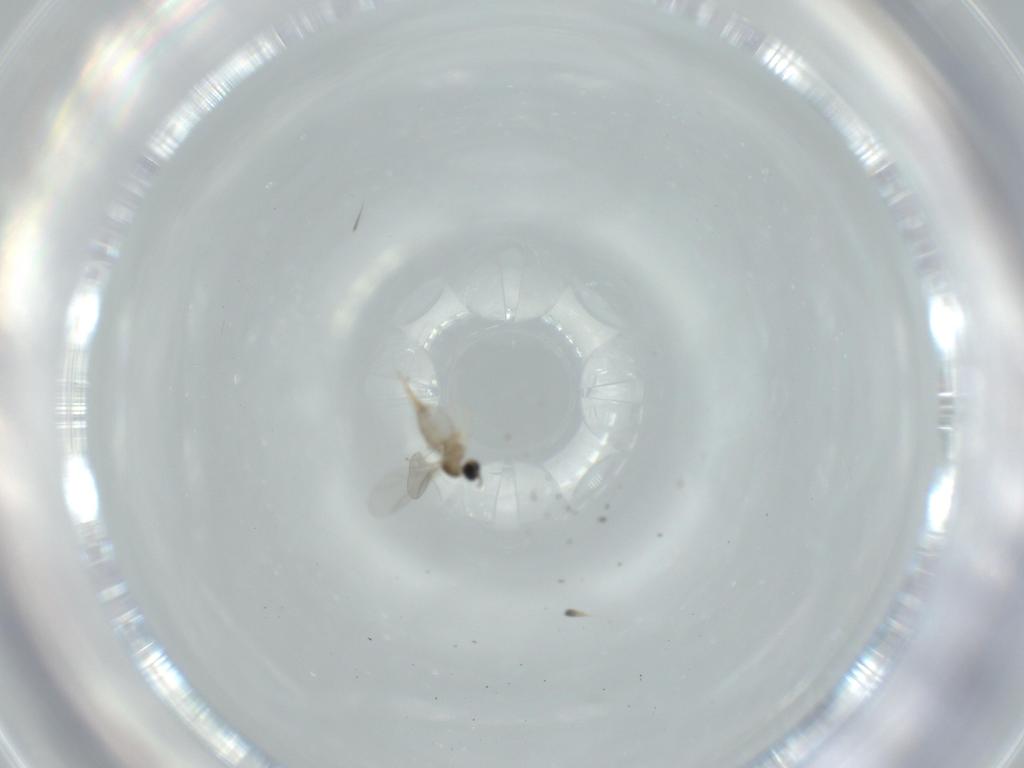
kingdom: Animalia
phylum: Arthropoda
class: Insecta
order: Diptera
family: Cecidomyiidae
